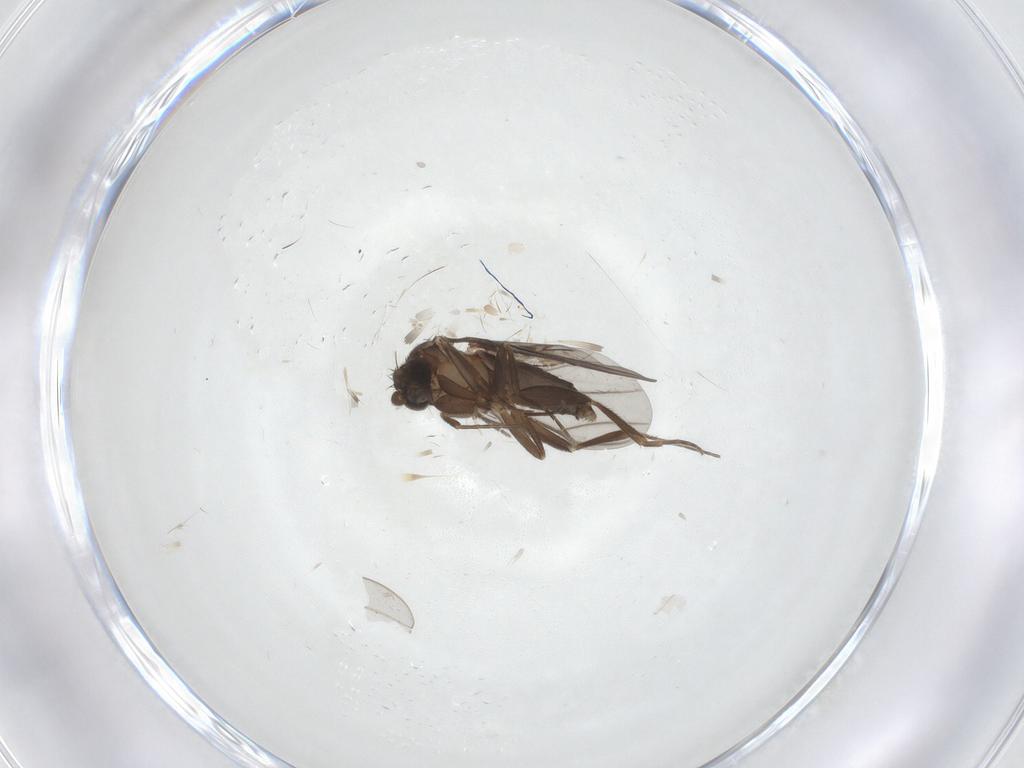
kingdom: Animalia
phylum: Arthropoda
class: Insecta
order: Diptera
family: Sciaridae
